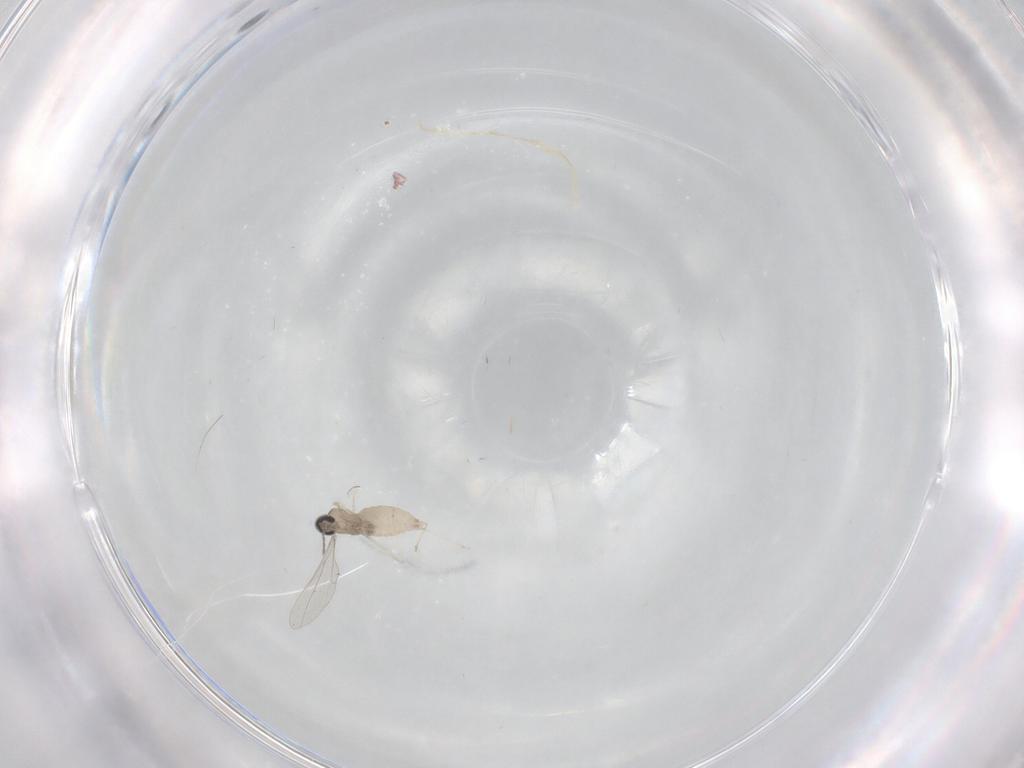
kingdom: Animalia
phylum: Arthropoda
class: Insecta
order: Diptera
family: Cecidomyiidae
